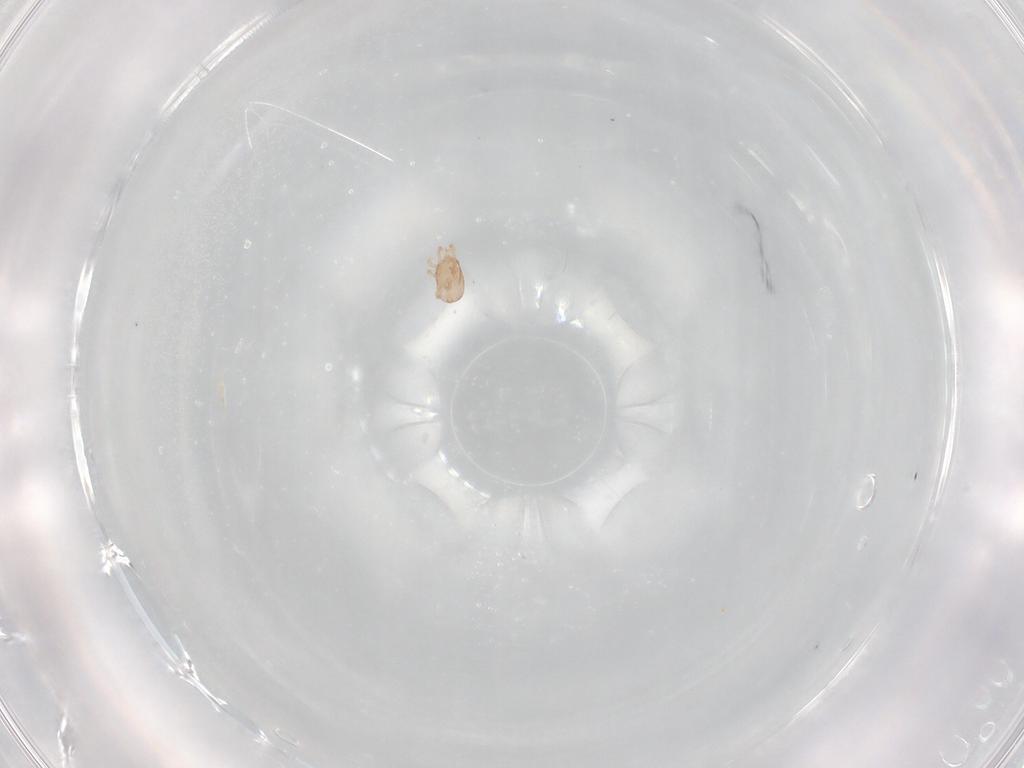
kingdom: Animalia
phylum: Arthropoda
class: Arachnida
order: Mesostigmata
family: Ascidae
